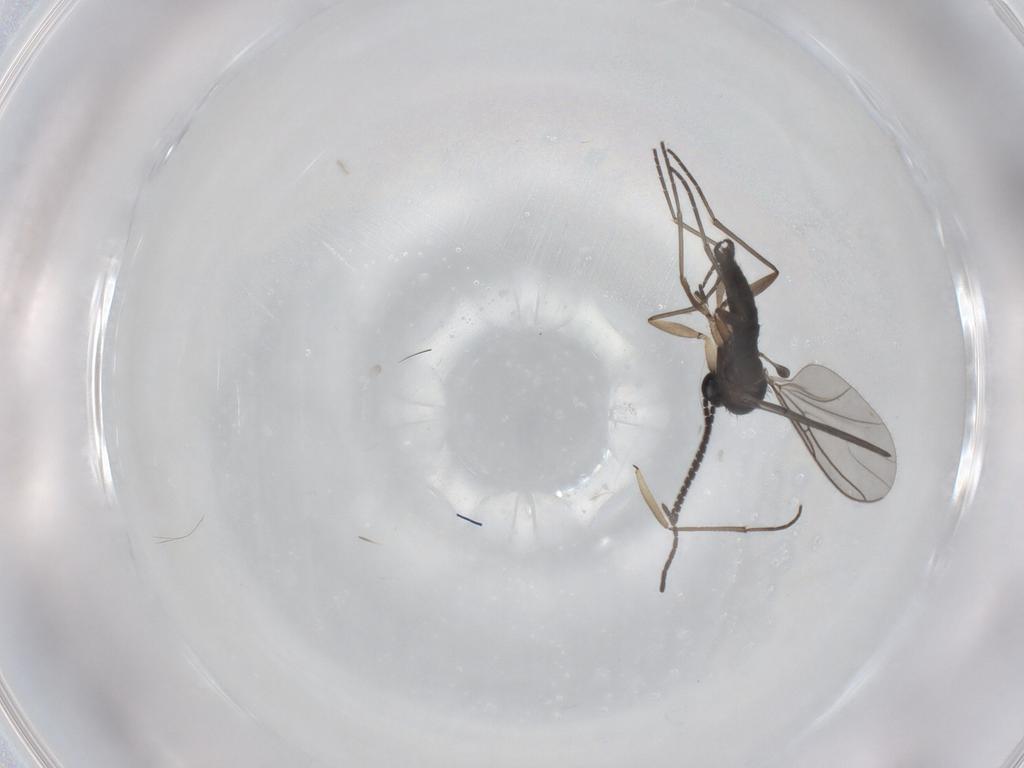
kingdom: Animalia
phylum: Arthropoda
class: Insecta
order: Diptera
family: Sciaridae
